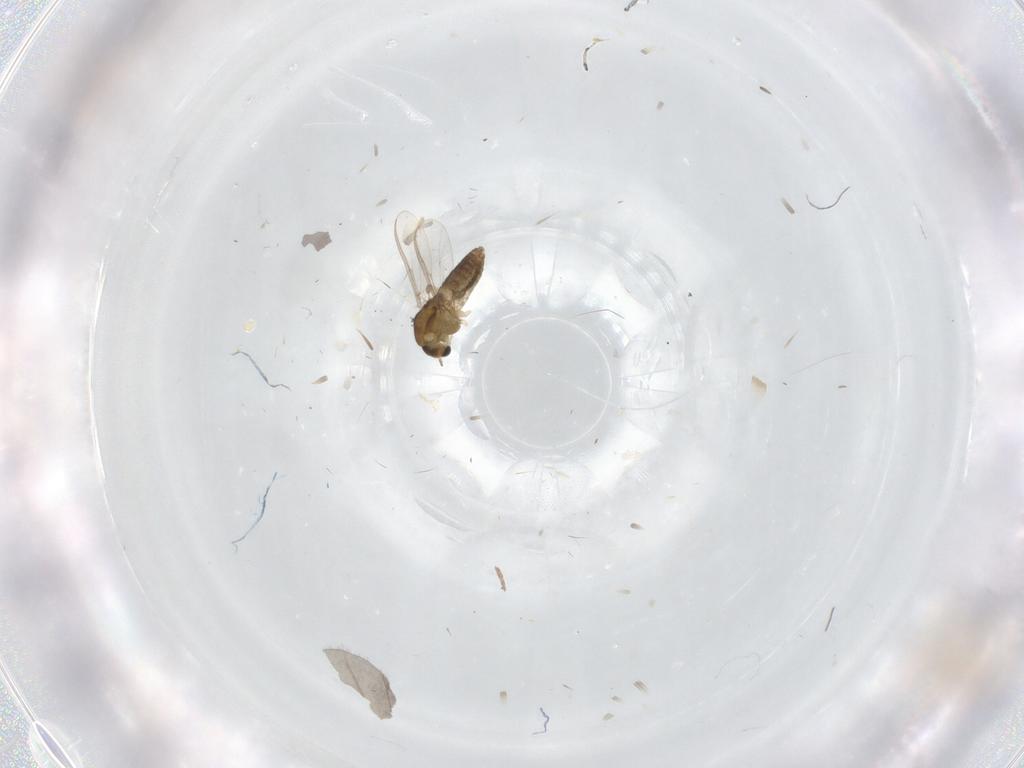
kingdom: Animalia
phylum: Arthropoda
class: Insecta
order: Diptera
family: Chironomidae
